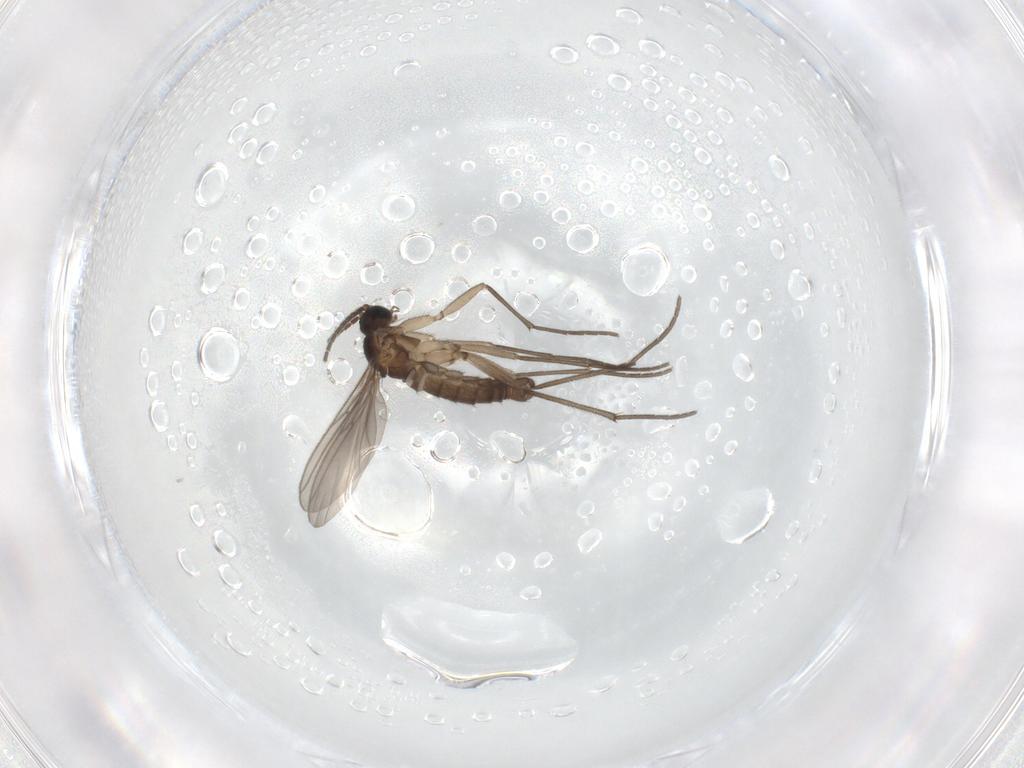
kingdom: Animalia
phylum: Arthropoda
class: Insecta
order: Diptera
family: Sciaridae
